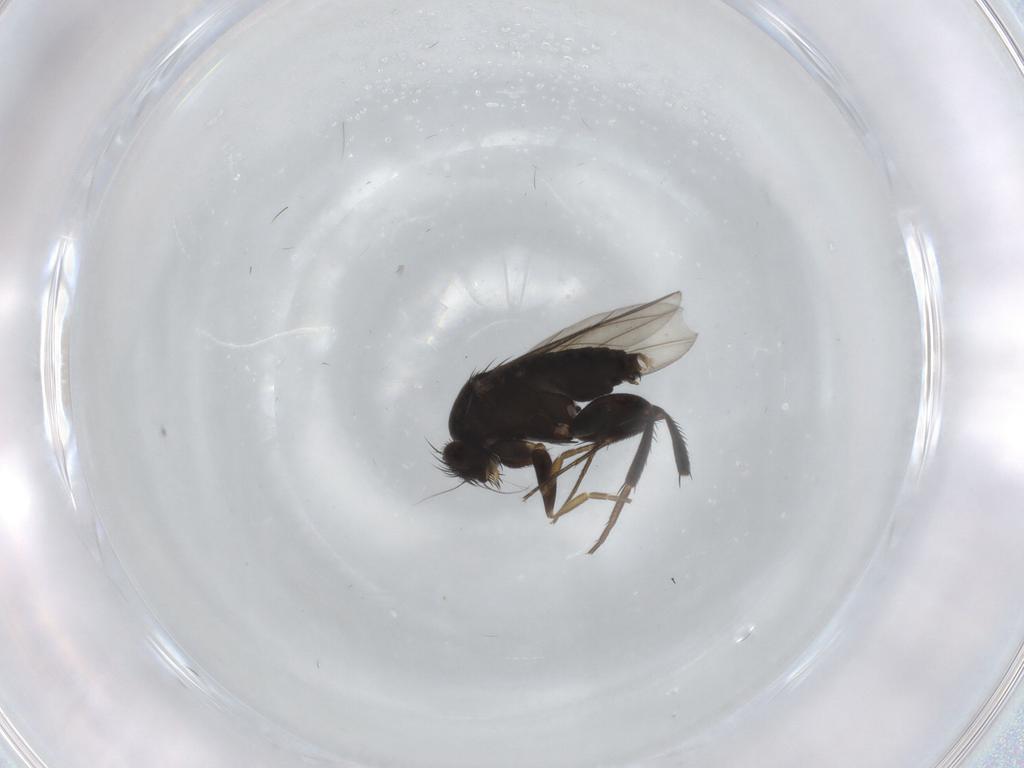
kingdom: Animalia
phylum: Arthropoda
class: Insecta
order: Diptera
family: Phoridae
